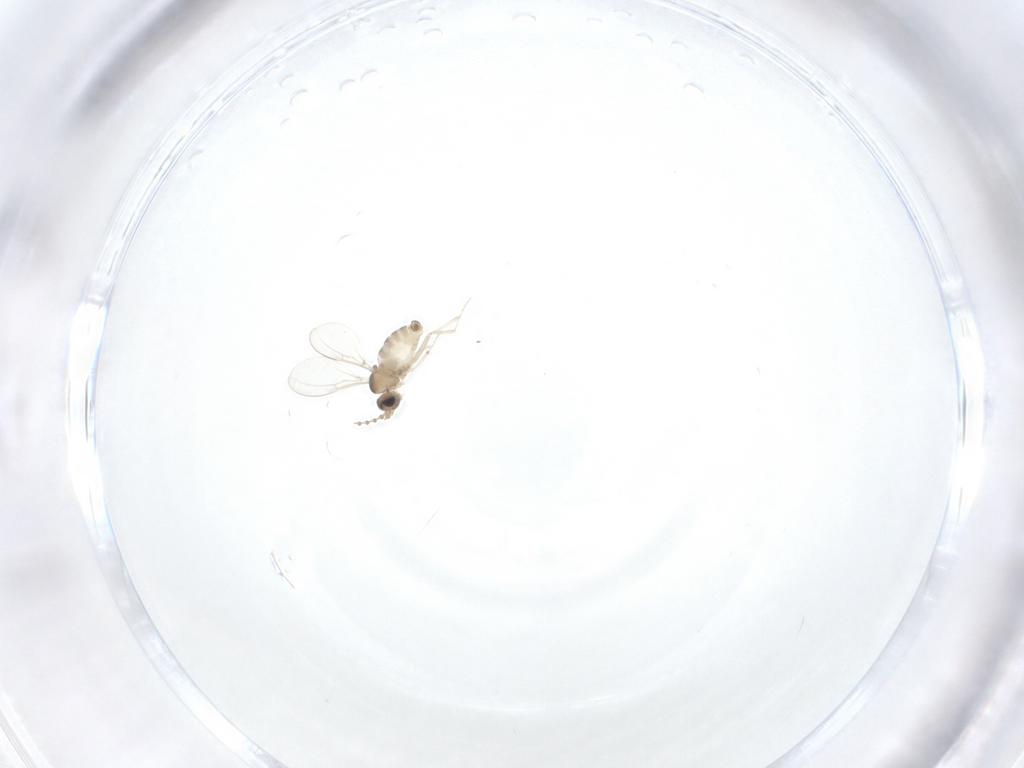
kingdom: Animalia
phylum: Arthropoda
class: Insecta
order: Diptera
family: Cecidomyiidae
